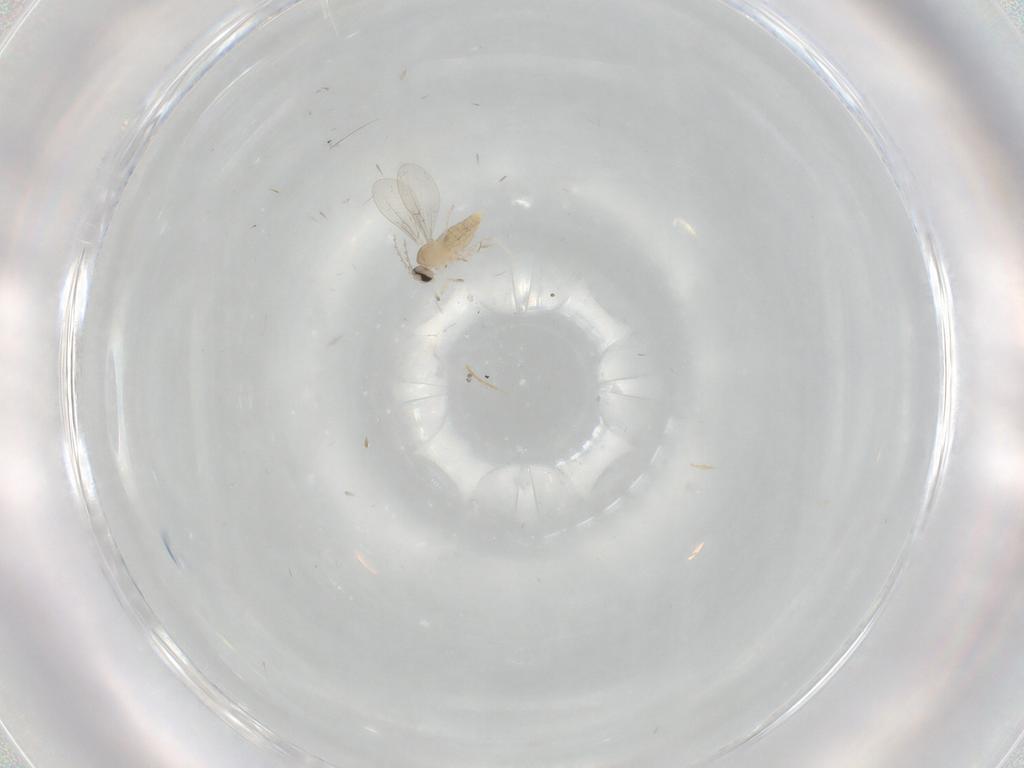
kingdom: Animalia
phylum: Arthropoda
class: Insecta
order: Diptera
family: Cecidomyiidae
